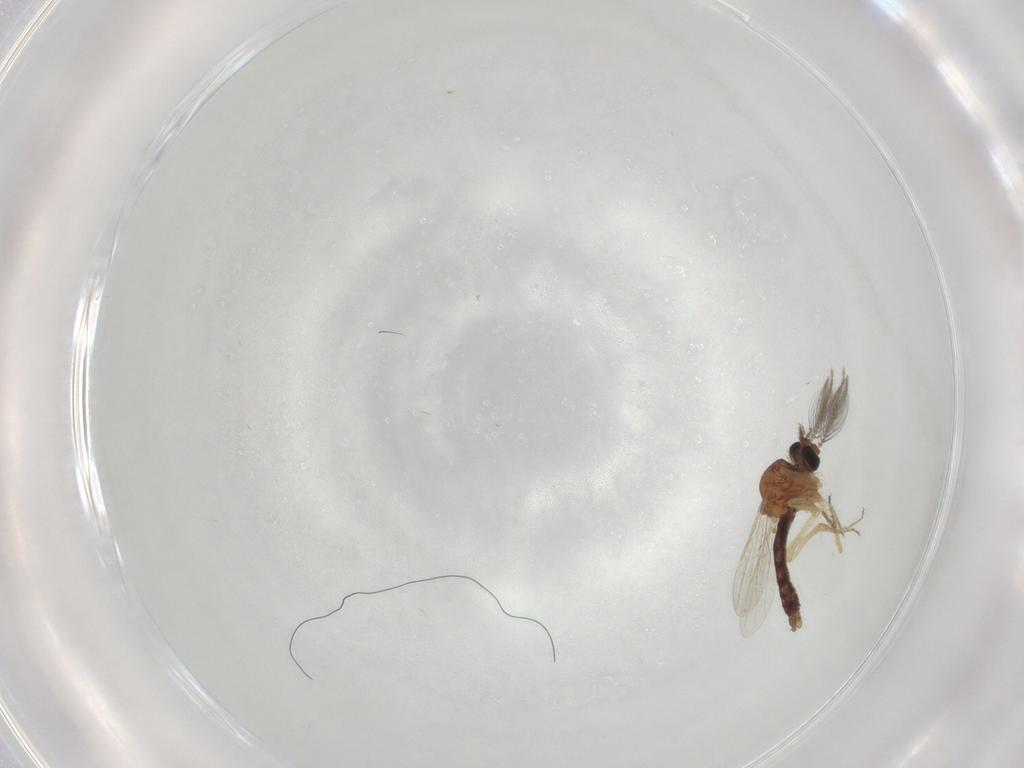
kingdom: Animalia
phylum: Arthropoda
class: Insecta
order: Diptera
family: Ceratopogonidae
